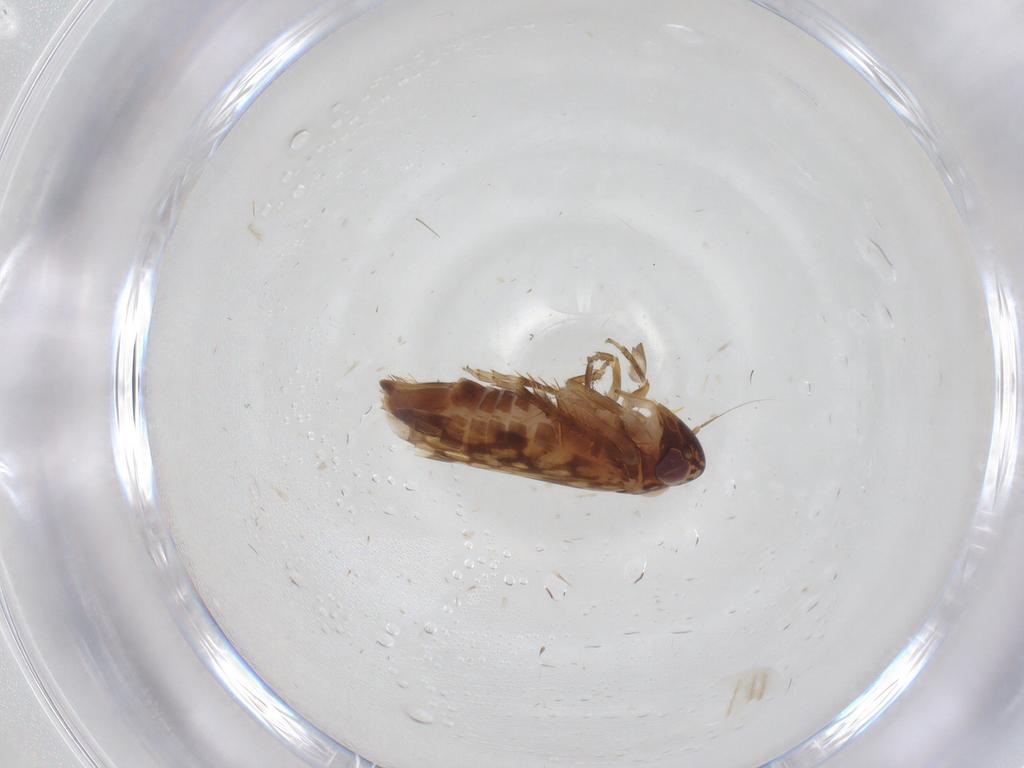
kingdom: Animalia
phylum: Arthropoda
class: Insecta
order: Hemiptera
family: Cicadellidae
